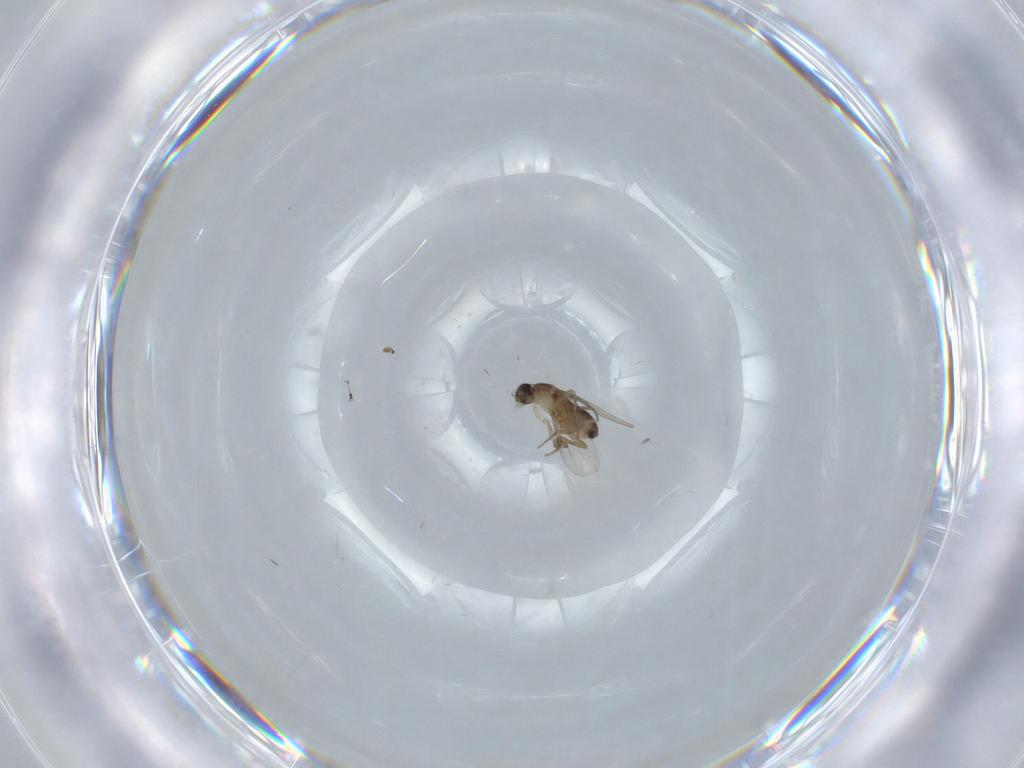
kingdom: Animalia
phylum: Arthropoda
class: Insecta
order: Diptera
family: Phoridae
